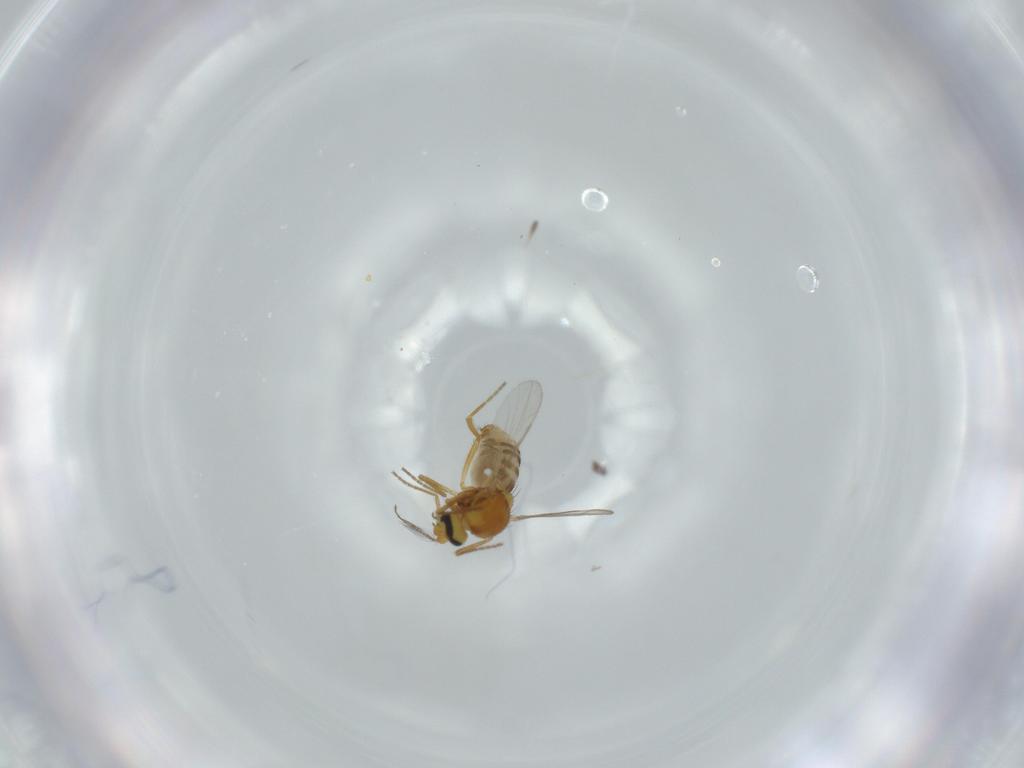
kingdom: Animalia
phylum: Arthropoda
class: Insecta
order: Diptera
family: Ceratopogonidae
